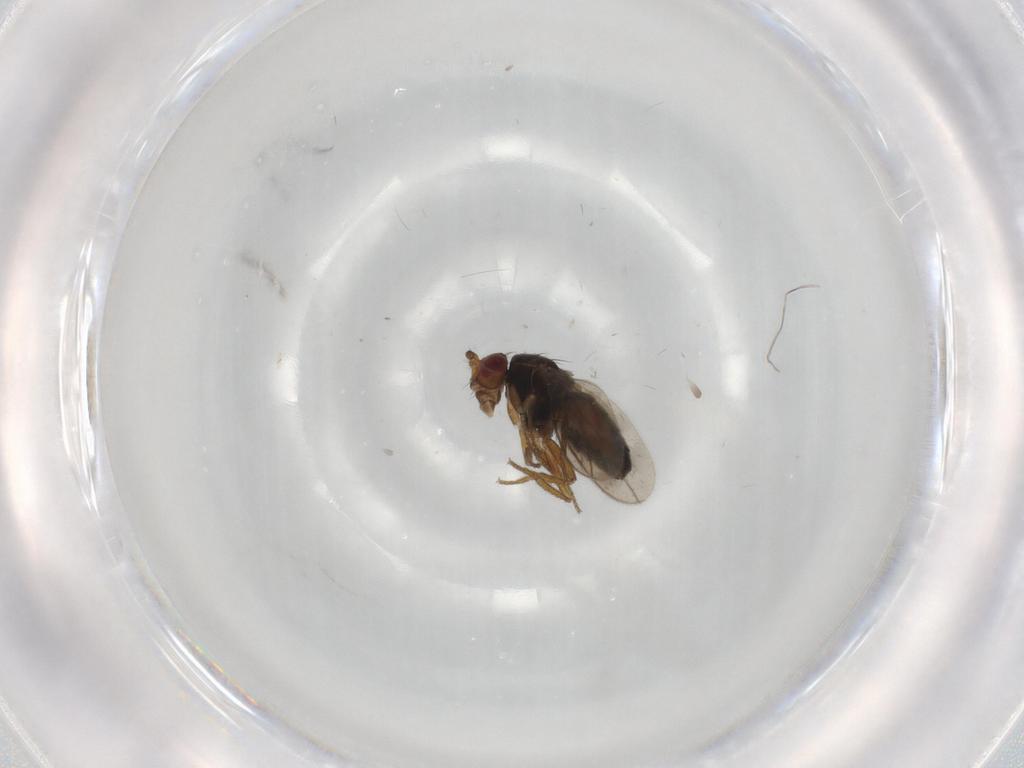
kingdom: Animalia
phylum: Arthropoda
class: Insecta
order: Diptera
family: Sphaeroceridae
